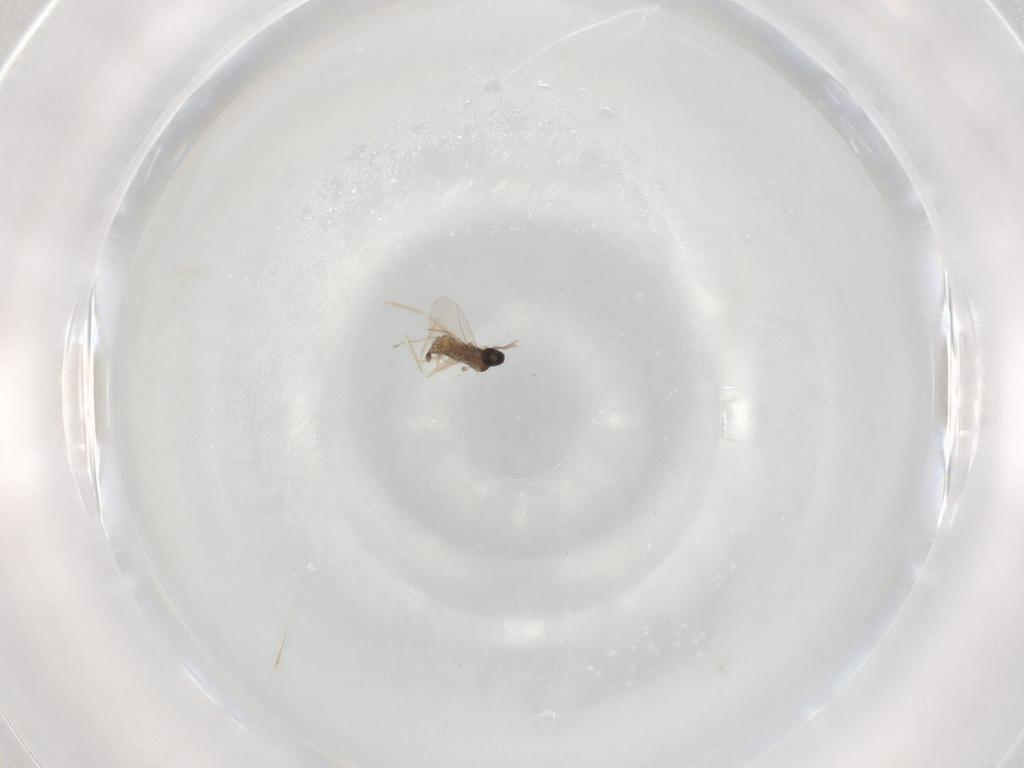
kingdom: Animalia
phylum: Arthropoda
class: Insecta
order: Diptera
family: Cecidomyiidae
